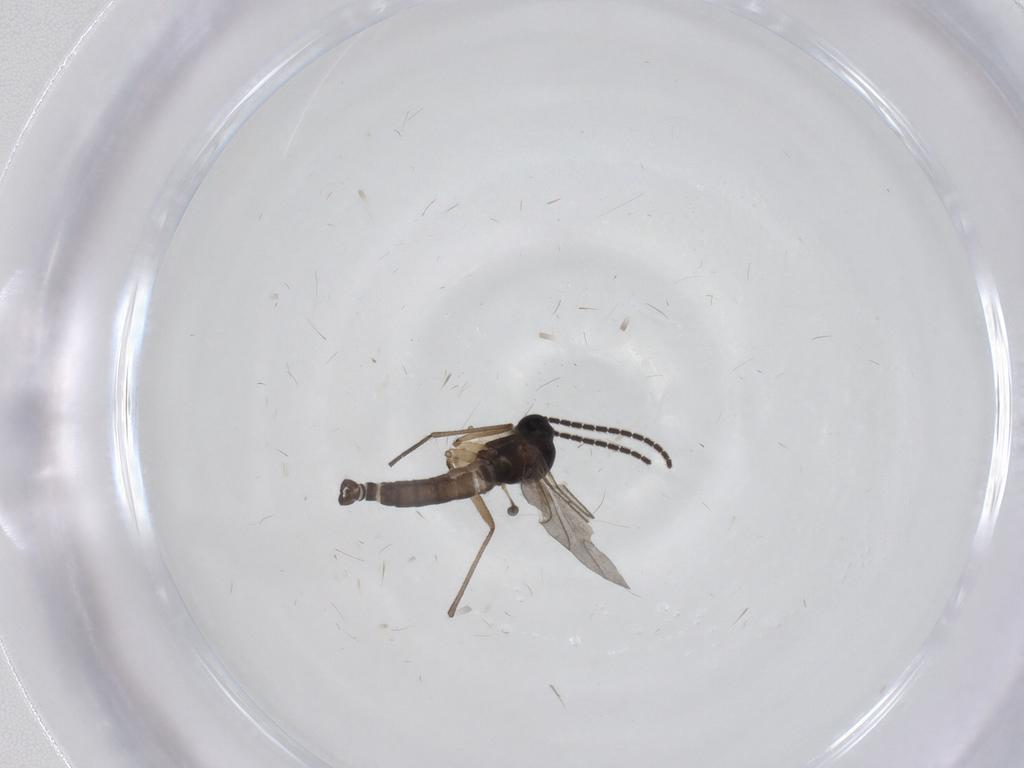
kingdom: Animalia
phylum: Arthropoda
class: Insecta
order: Diptera
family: Sciaridae
